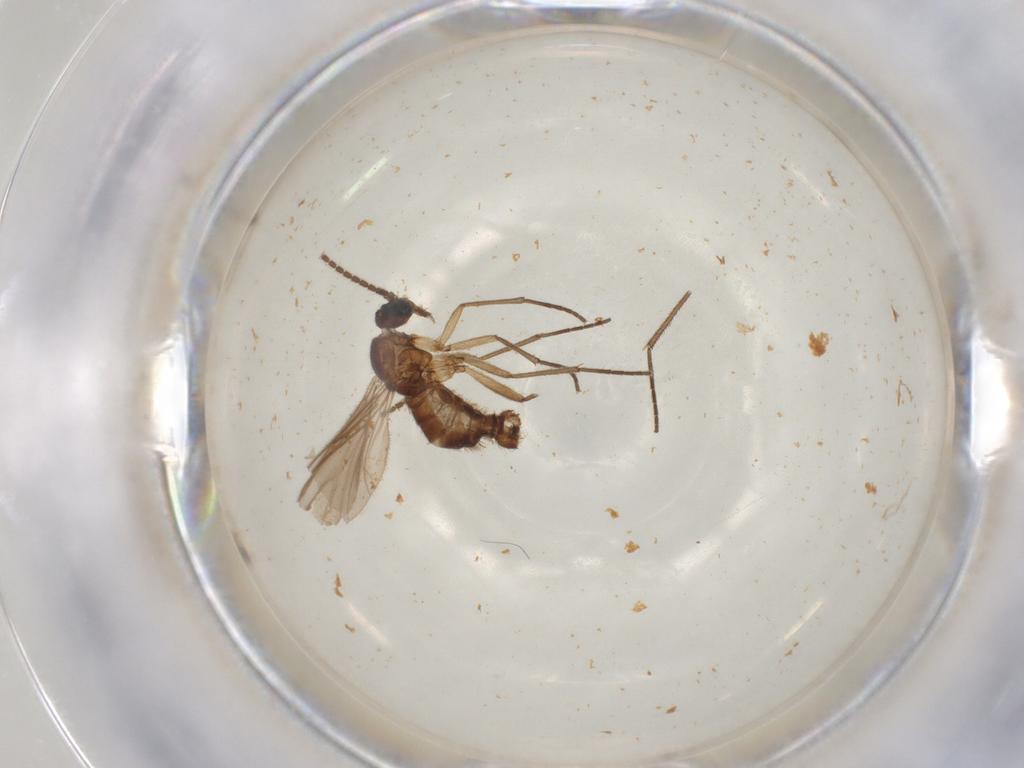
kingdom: Animalia
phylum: Arthropoda
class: Insecta
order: Diptera
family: Sciaridae
